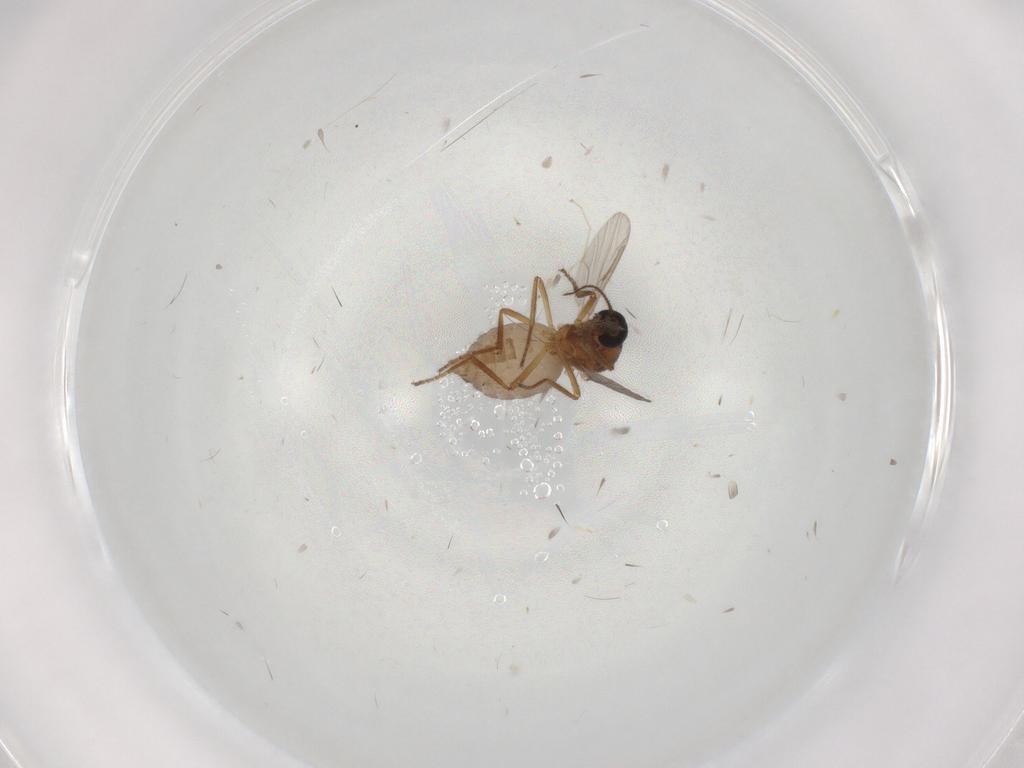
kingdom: Animalia
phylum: Arthropoda
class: Insecta
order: Diptera
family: Ceratopogonidae
